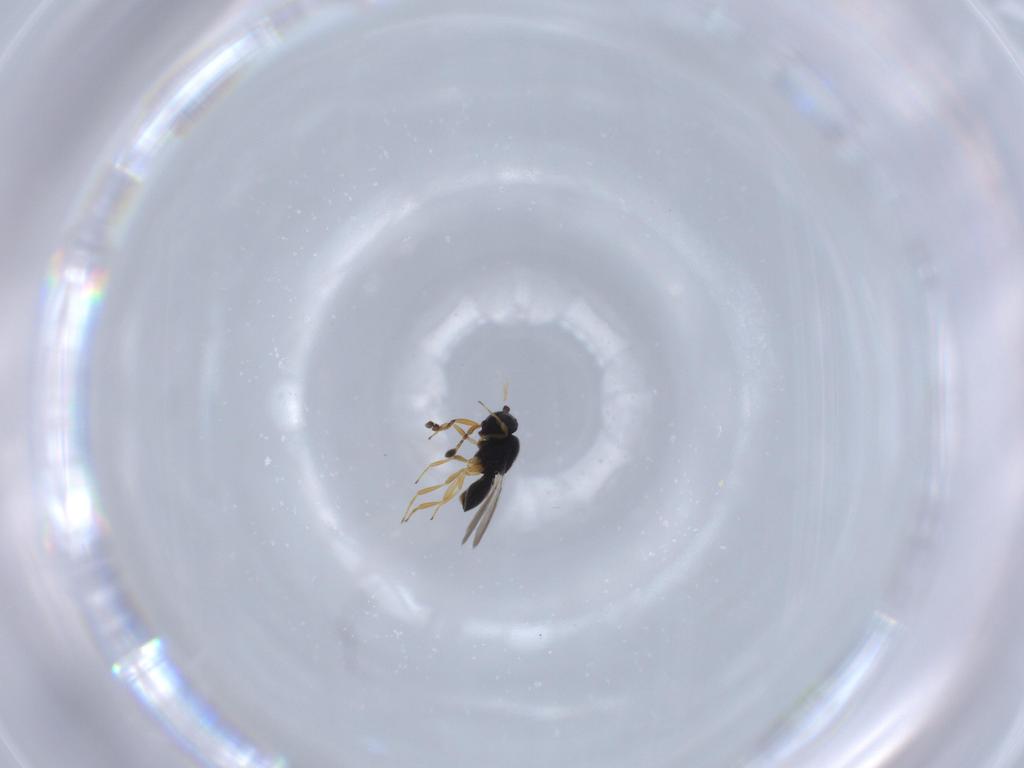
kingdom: Animalia
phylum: Arthropoda
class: Insecta
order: Hymenoptera
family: Scelionidae
